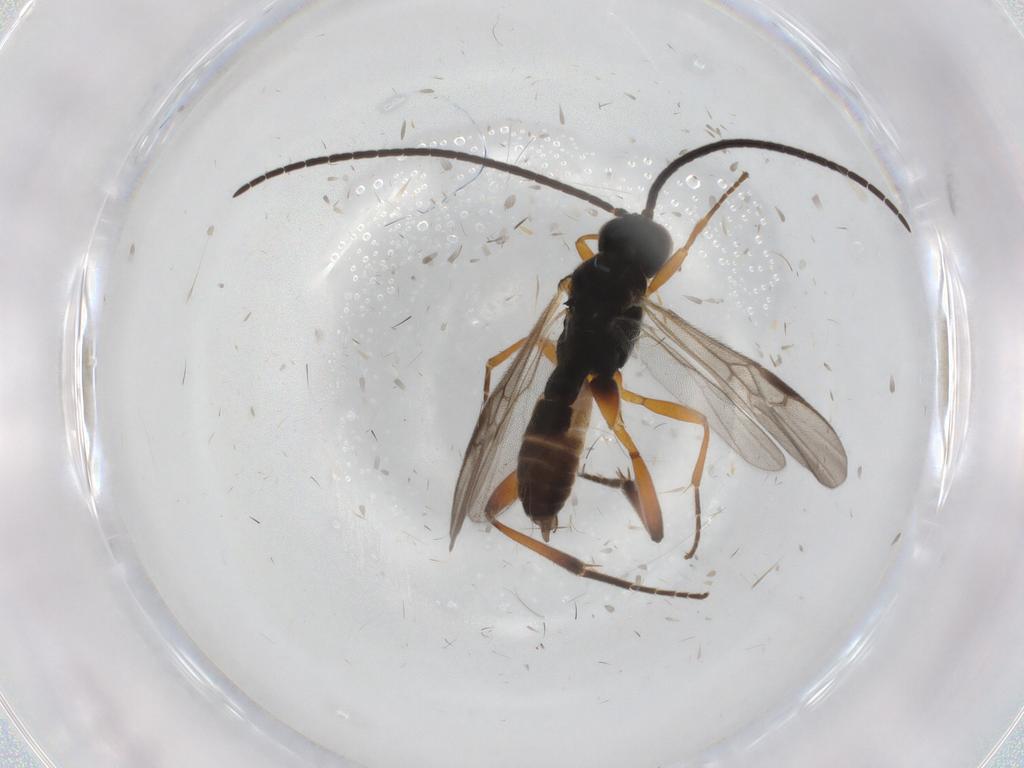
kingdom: Animalia
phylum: Arthropoda
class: Insecta
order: Hymenoptera
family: Braconidae
